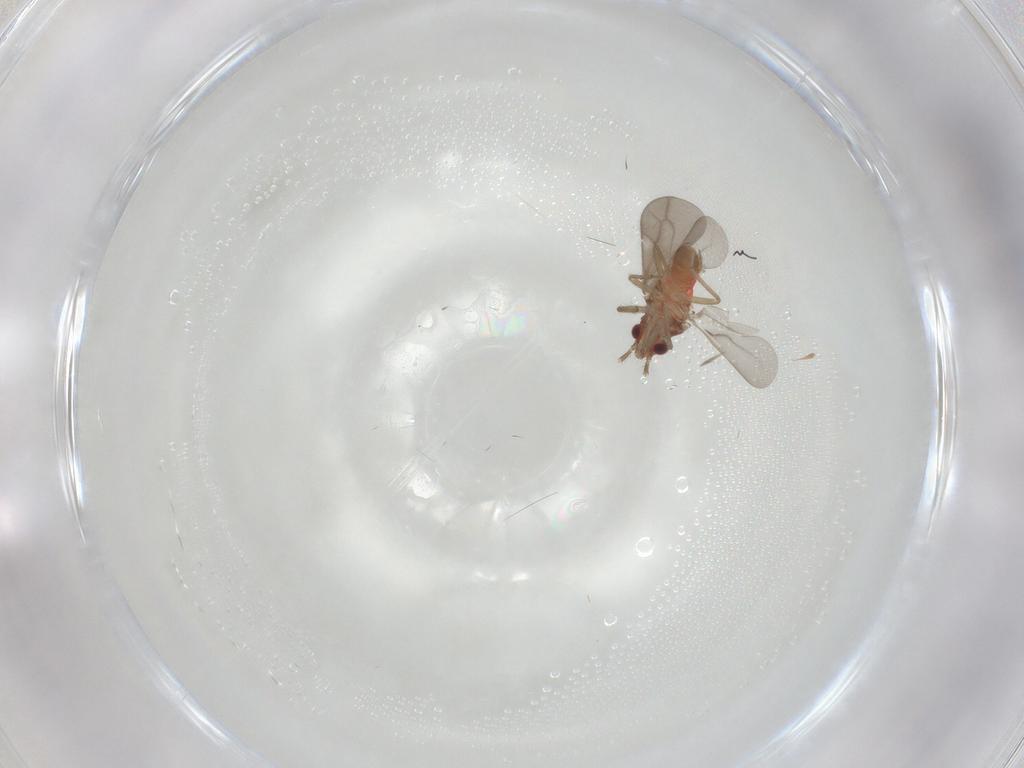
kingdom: Animalia
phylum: Arthropoda
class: Insecta
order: Hemiptera
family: Ceratocombidae
